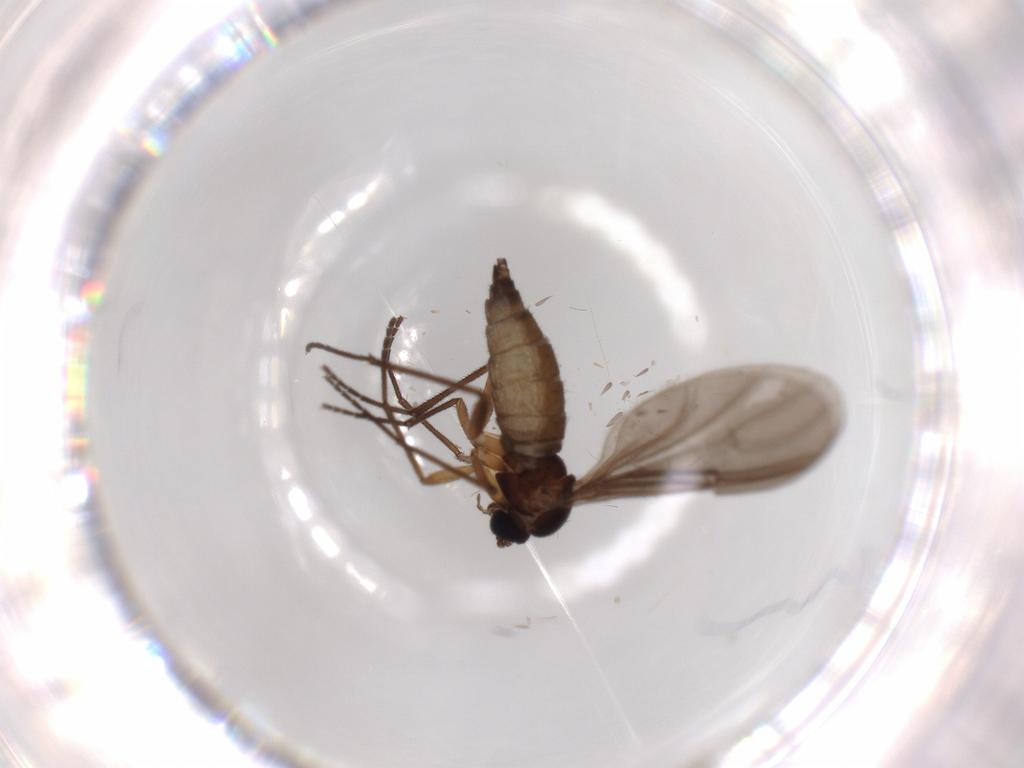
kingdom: Animalia
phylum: Arthropoda
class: Insecta
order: Diptera
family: Sciaridae
